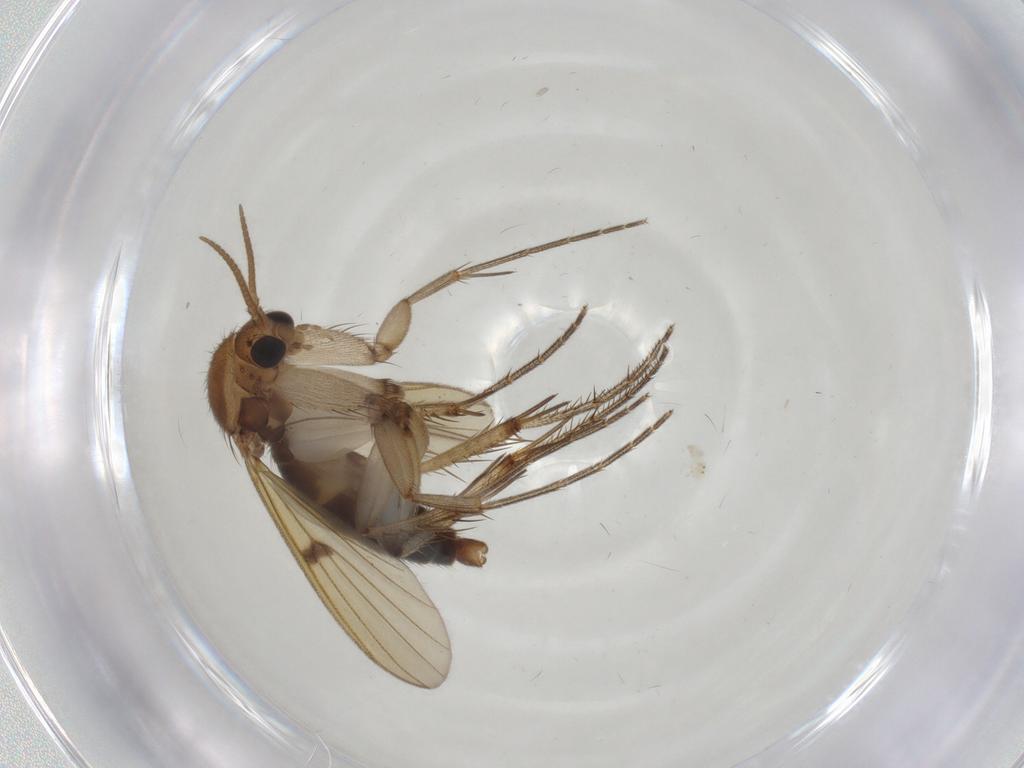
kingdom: Animalia
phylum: Arthropoda
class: Insecta
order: Diptera
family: Mycetophilidae
